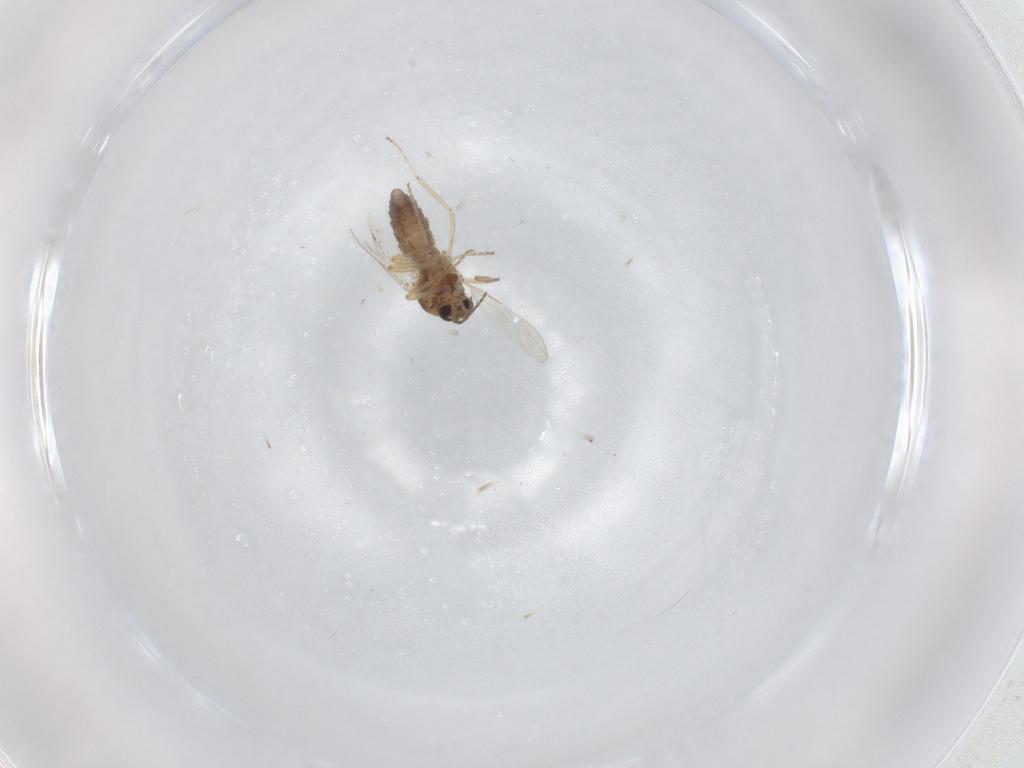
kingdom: Animalia
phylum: Arthropoda
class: Insecta
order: Diptera
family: Ceratopogonidae
